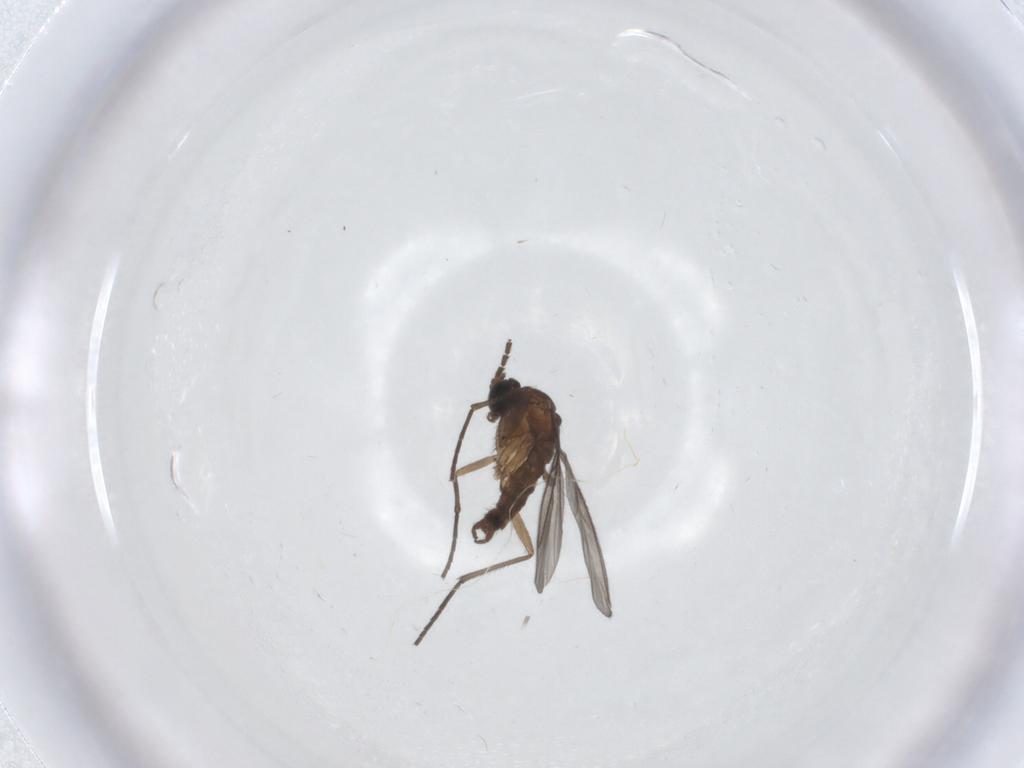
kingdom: Animalia
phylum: Arthropoda
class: Insecta
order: Diptera
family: Sciaridae
